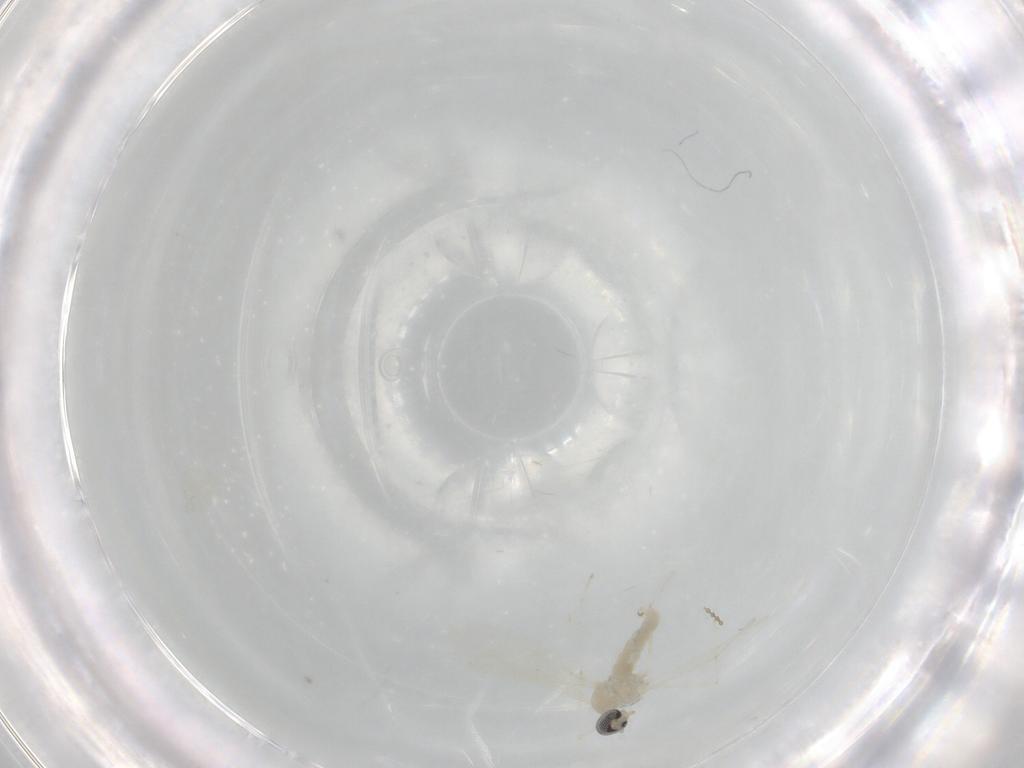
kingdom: Animalia
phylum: Arthropoda
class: Insecta
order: Diptera
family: Cecidomyiidae
